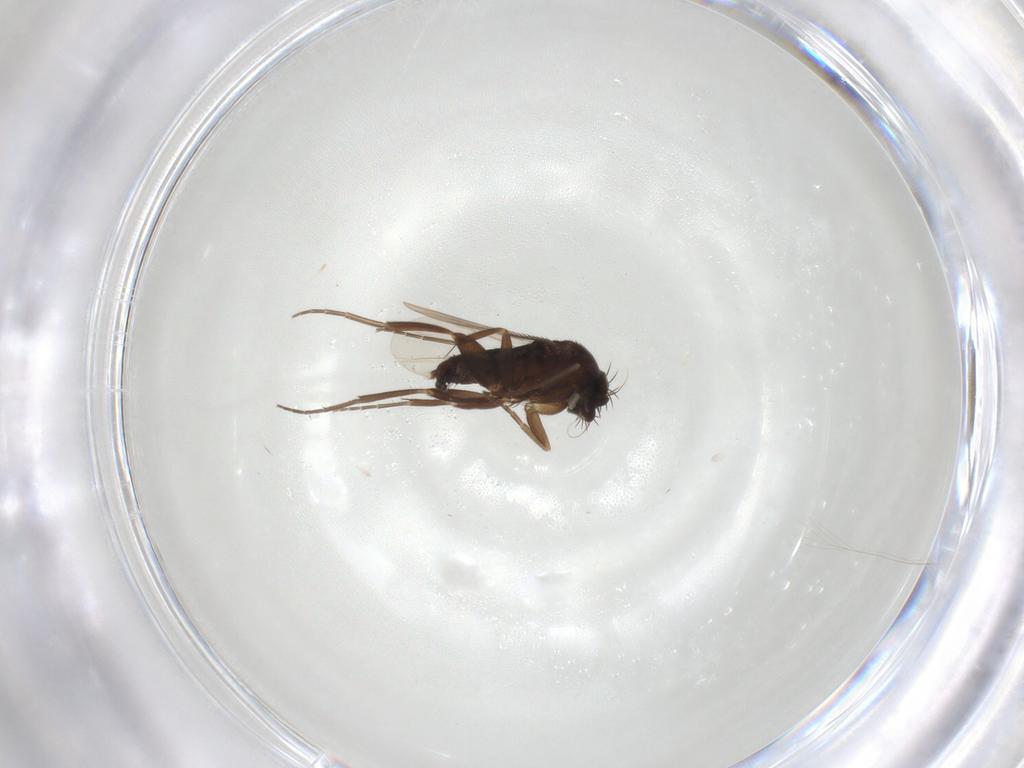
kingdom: Animalia
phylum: Arthropoda
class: Insecta
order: Diptera
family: Phoridae
